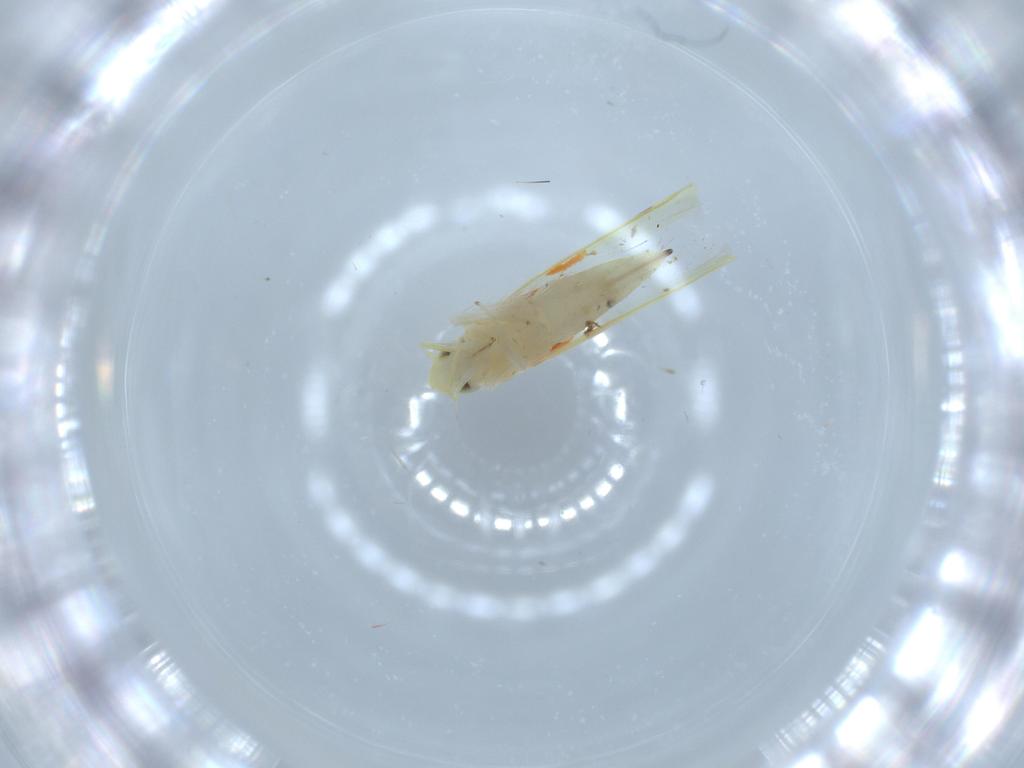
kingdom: Animalia
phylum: Arthropoda
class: Insecta
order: Hemiptera
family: Cicadellidae
